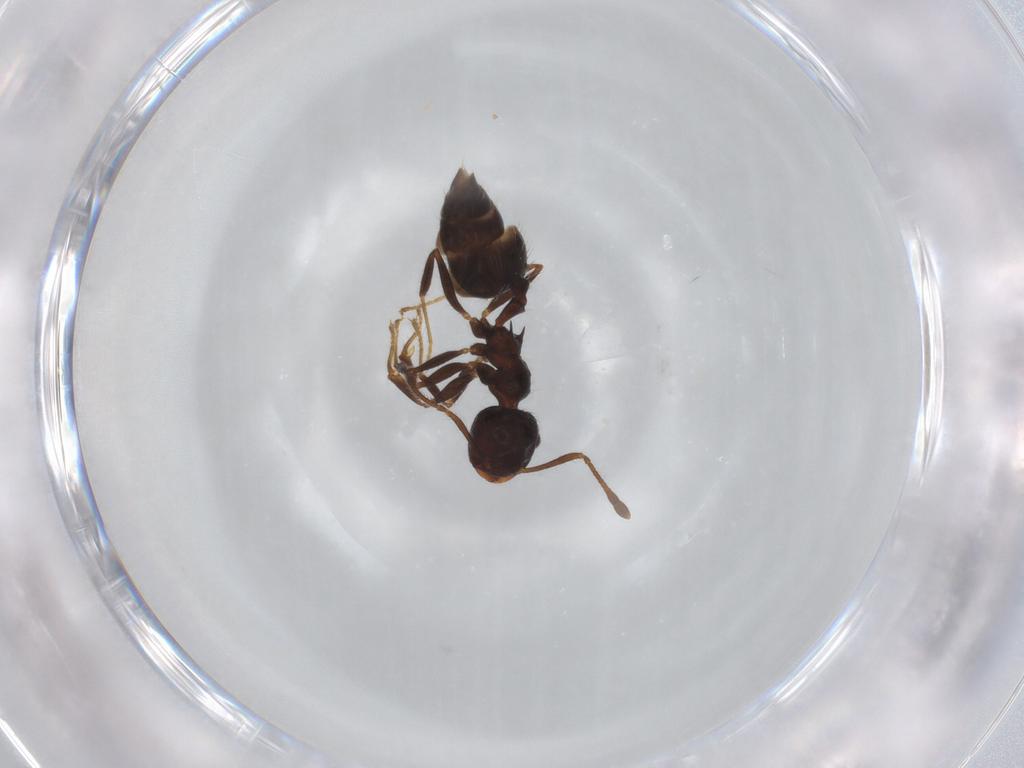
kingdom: Animalia
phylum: Arthropoda
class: Insecta
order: Hymenoptera
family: Formicidae
